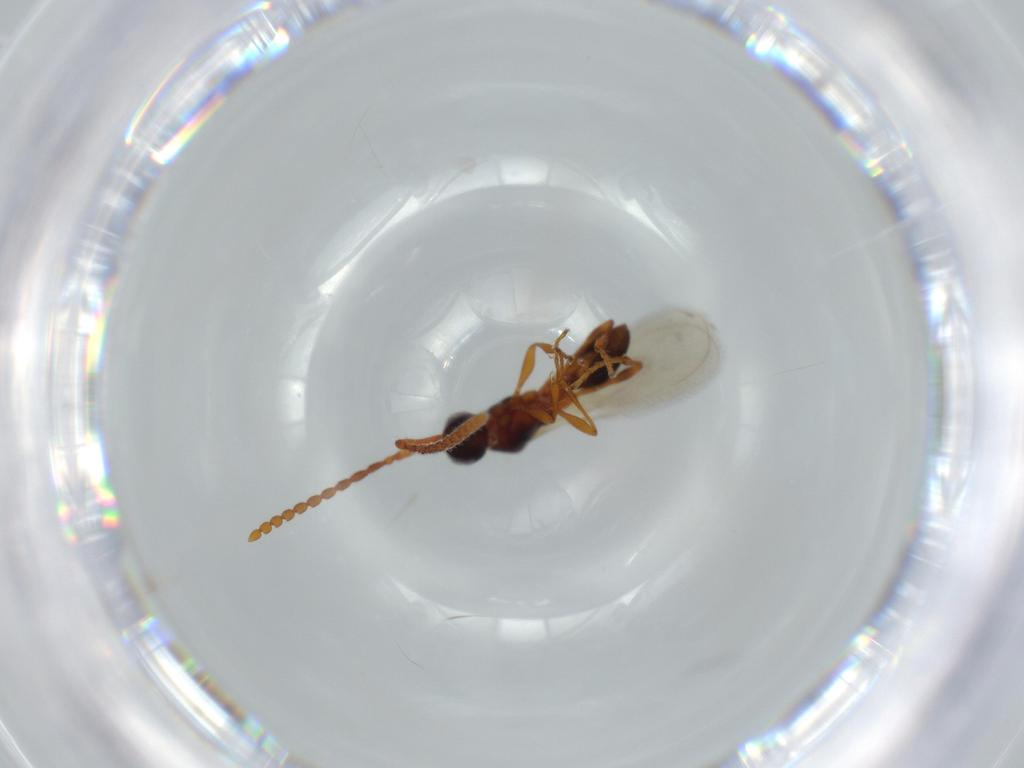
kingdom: Animalia
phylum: Arthropoda
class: Insecta
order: Hymenoptera
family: Diapriidae
